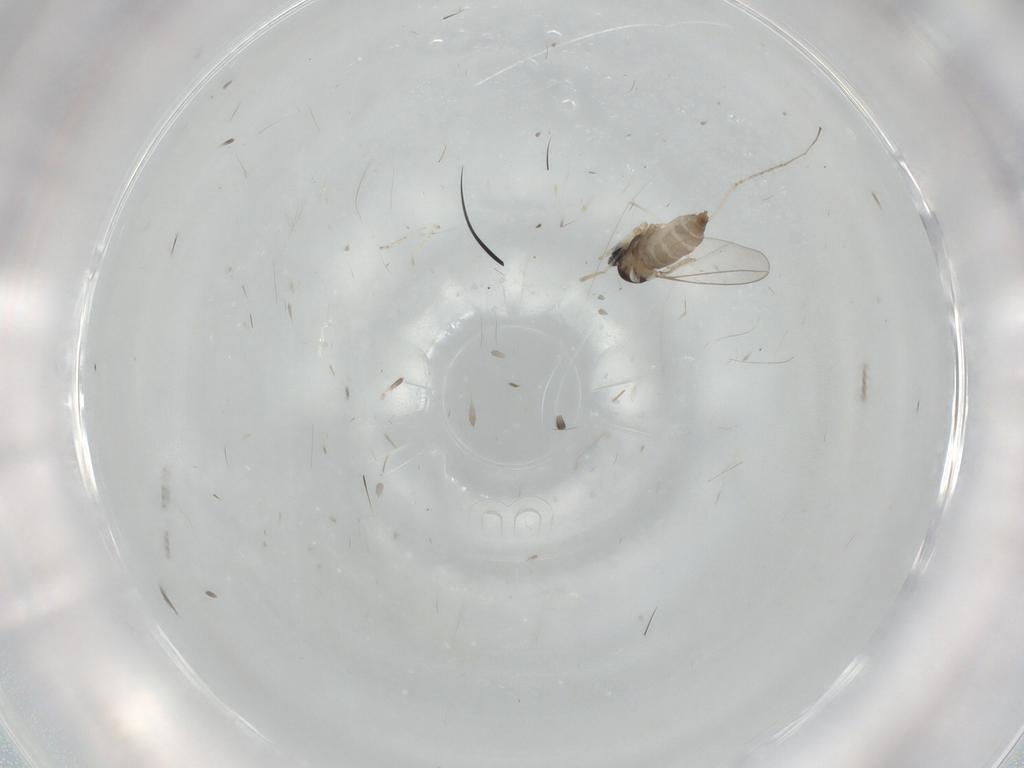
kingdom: Animalia
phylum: Arthropoda
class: Insecta
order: Diptera
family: Cecidomyiidae
